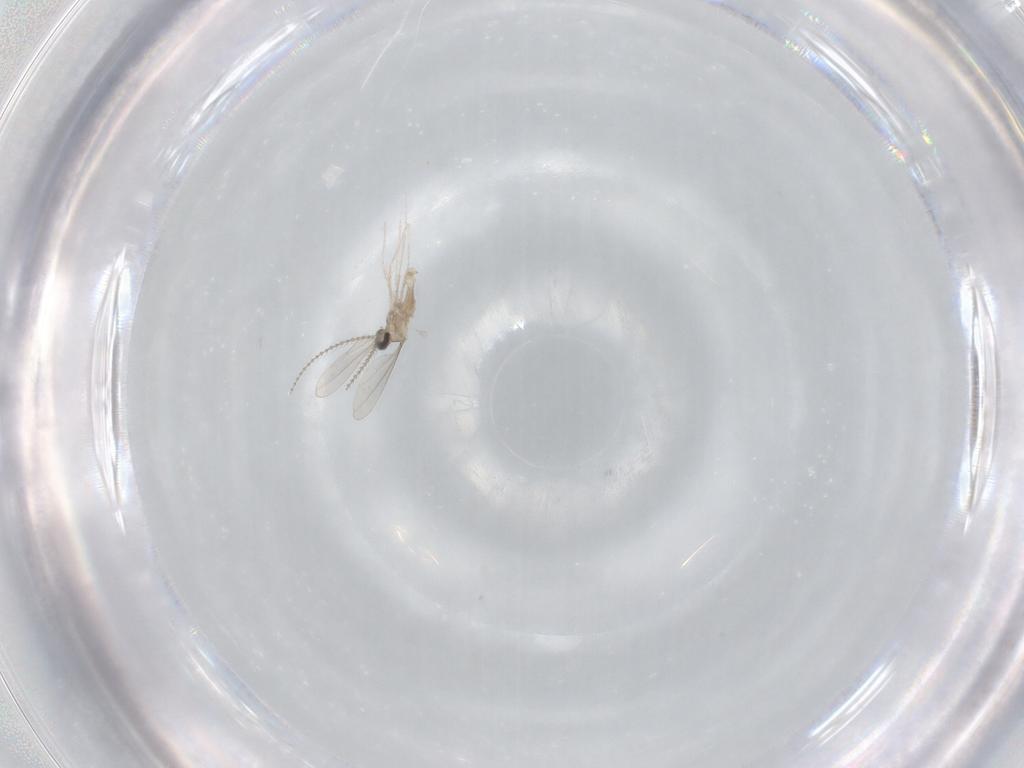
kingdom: Animalia
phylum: Arthropoda
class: Insecta
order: Diptera
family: Cecidomyiidae
